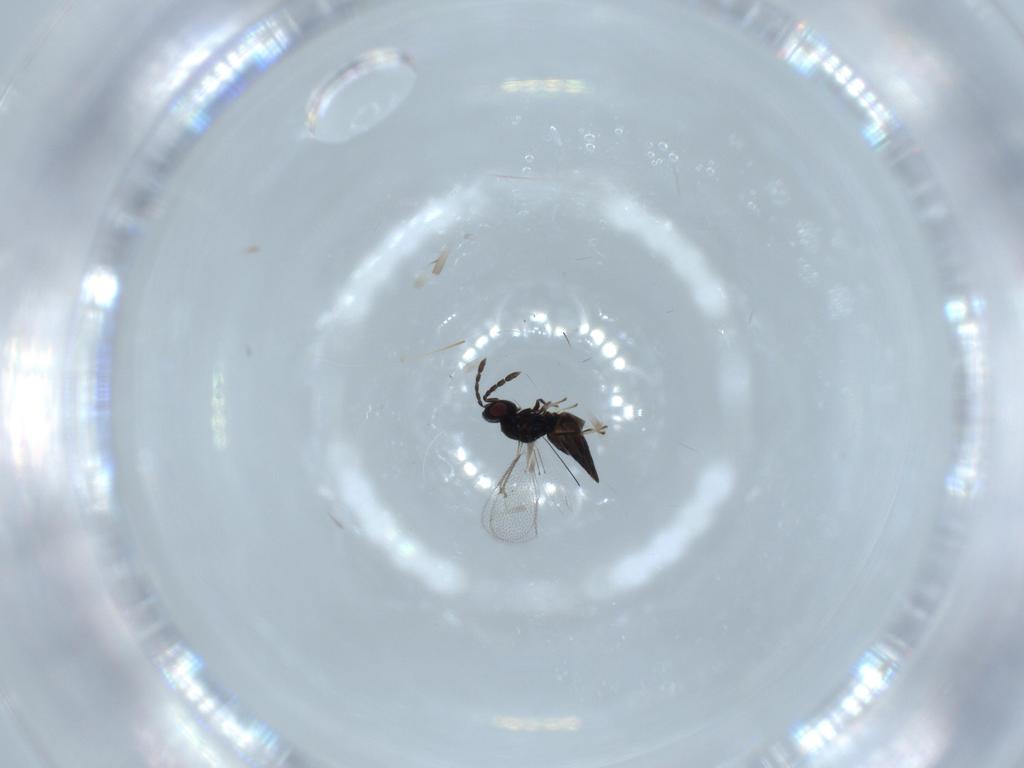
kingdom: Animalia
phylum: Arthropoda
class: Insecta
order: Hymenoptera
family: Eulophidae
